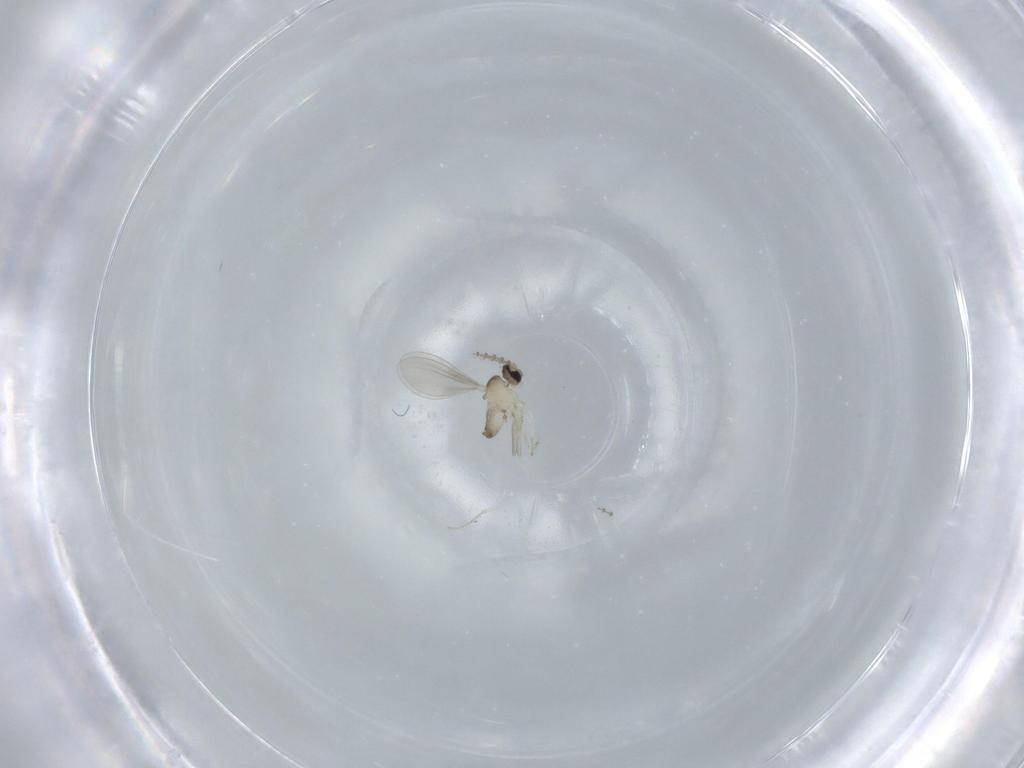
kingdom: Animalia
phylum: Arthropoda
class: Insecta
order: Diptera
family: Cecidomyiidae
